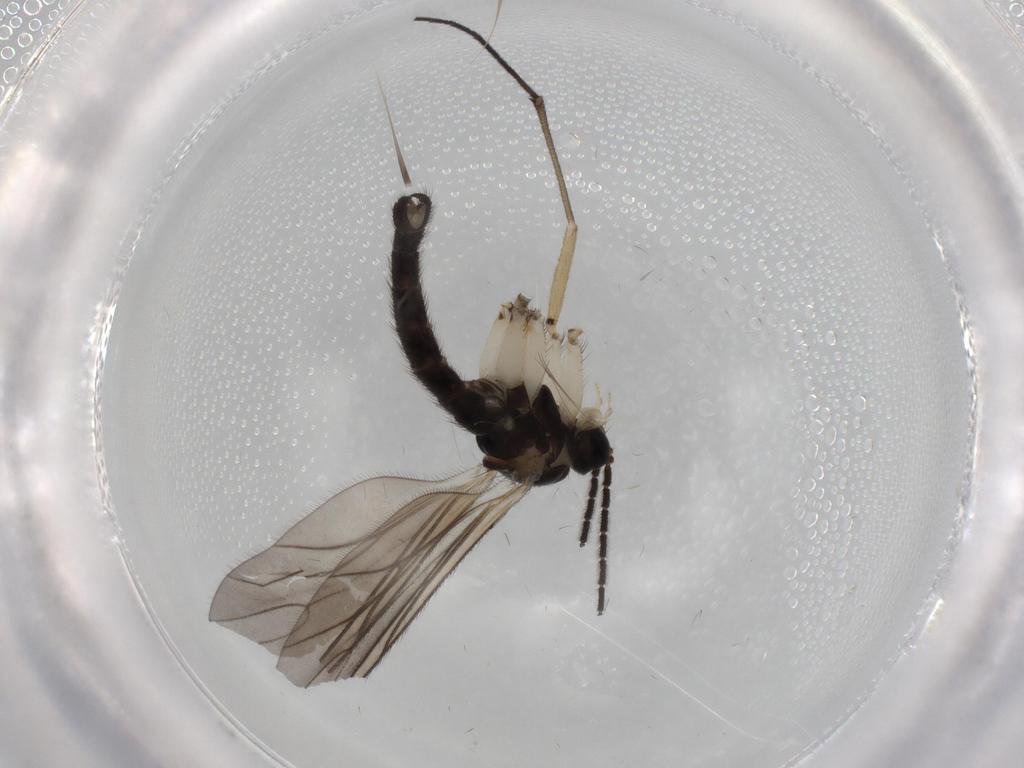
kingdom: Animalia
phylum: Arthropoda
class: Insecta
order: Diptera
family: Sciaridae
